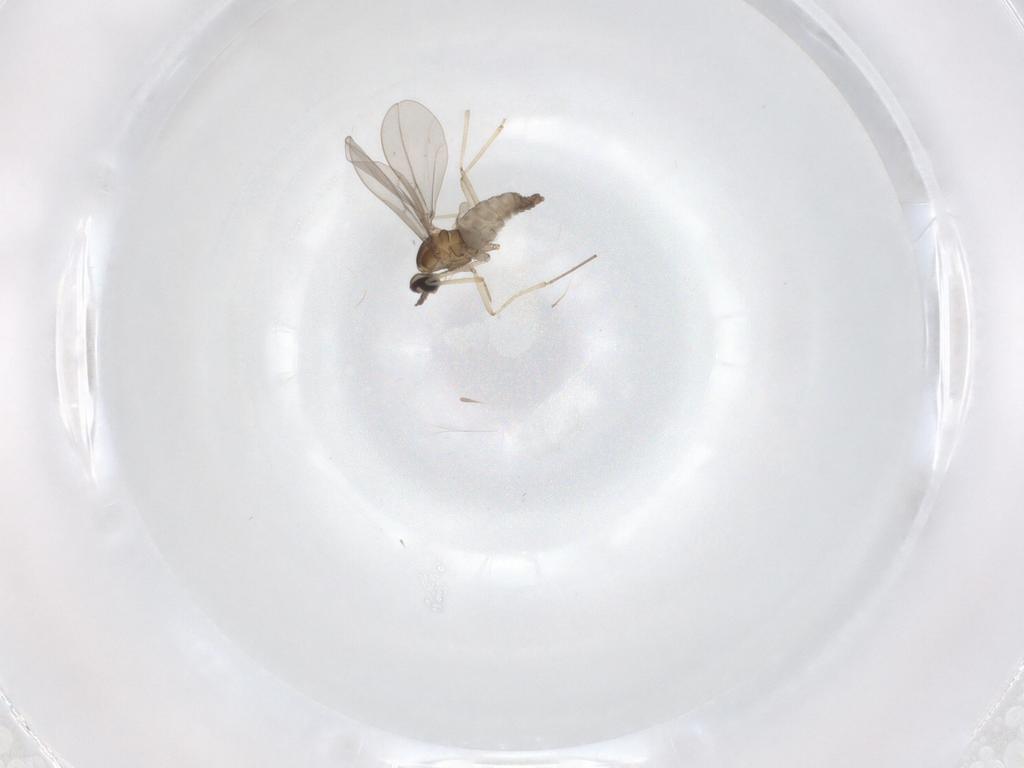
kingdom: Animalia
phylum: Arthropoda
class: Insecta
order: Diptera
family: Cecidomyiidae
